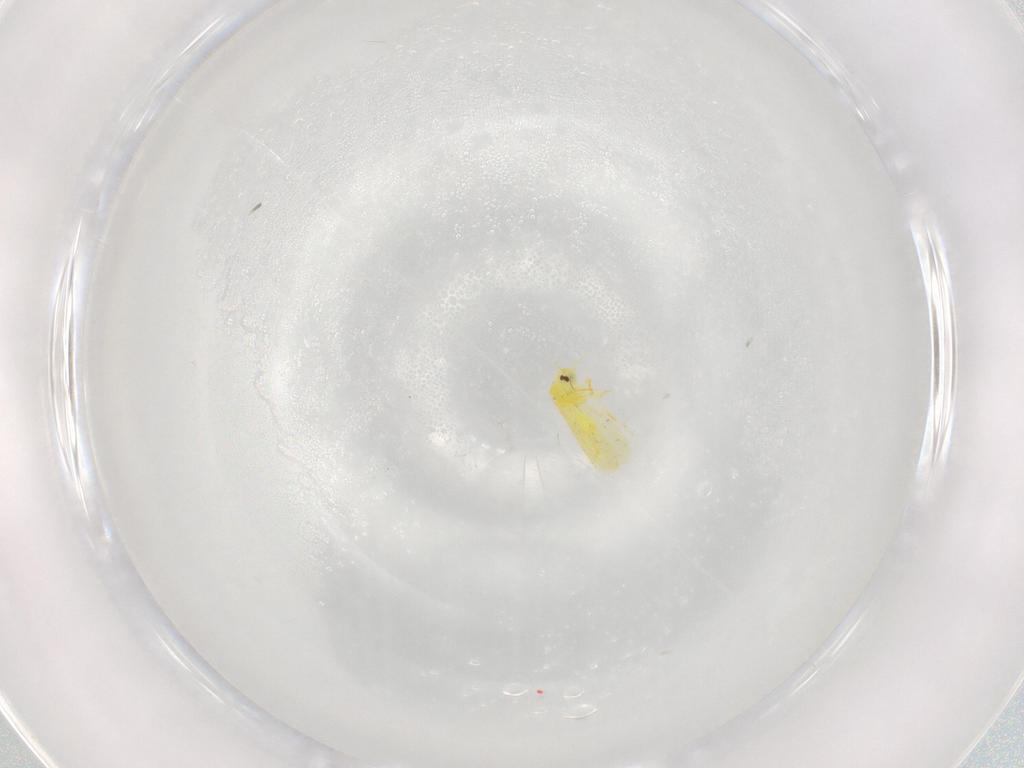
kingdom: Animalia
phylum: Arthropoda
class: Insecta
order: Hemiptera
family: Aleyrodidae
